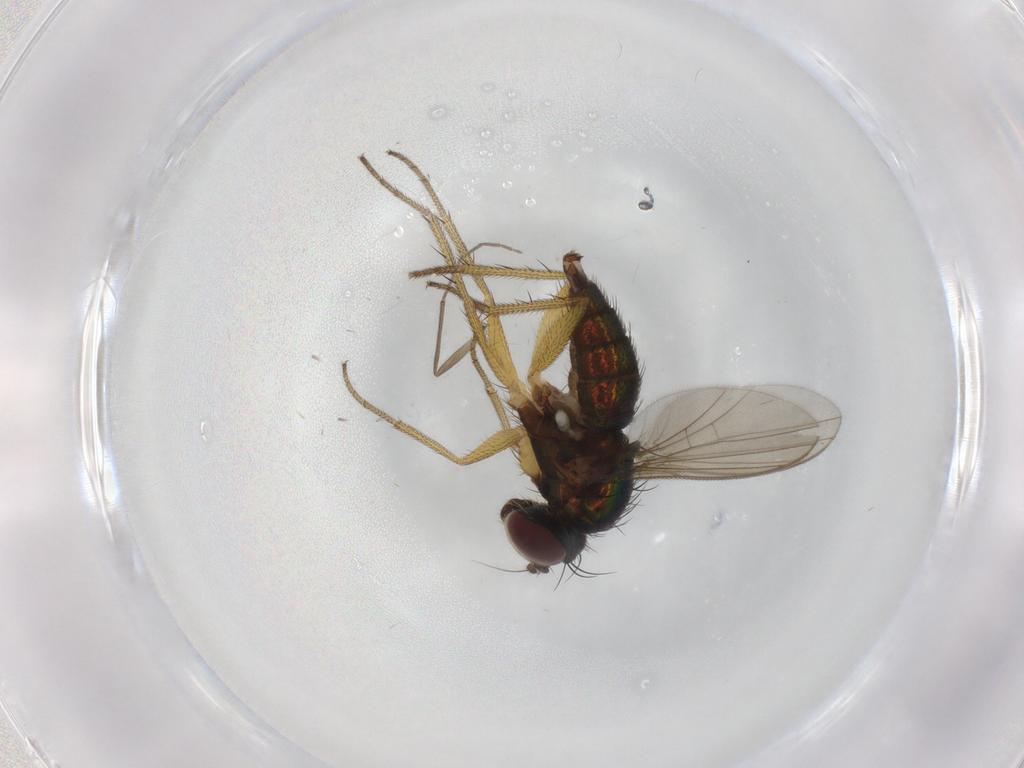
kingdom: Animalia
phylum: Arthropoda
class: Insecta
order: Diptera
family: Chironomidae
